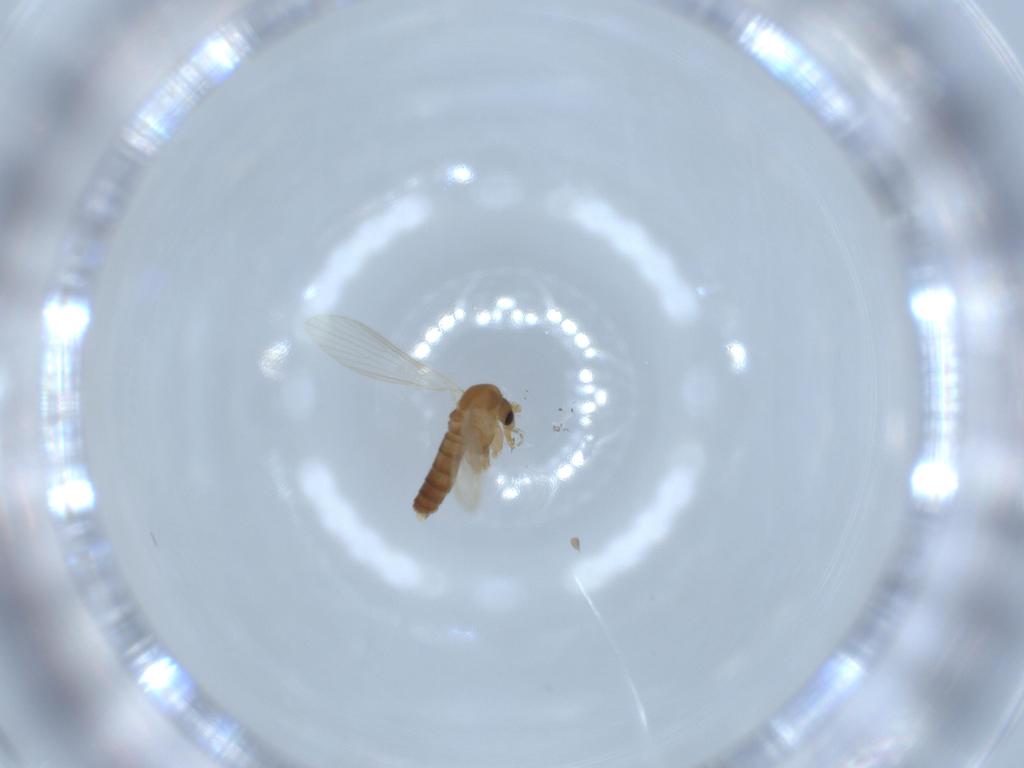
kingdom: Animalia
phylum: Arthropoda
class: Insecta
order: Diptera
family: Psychodidae
